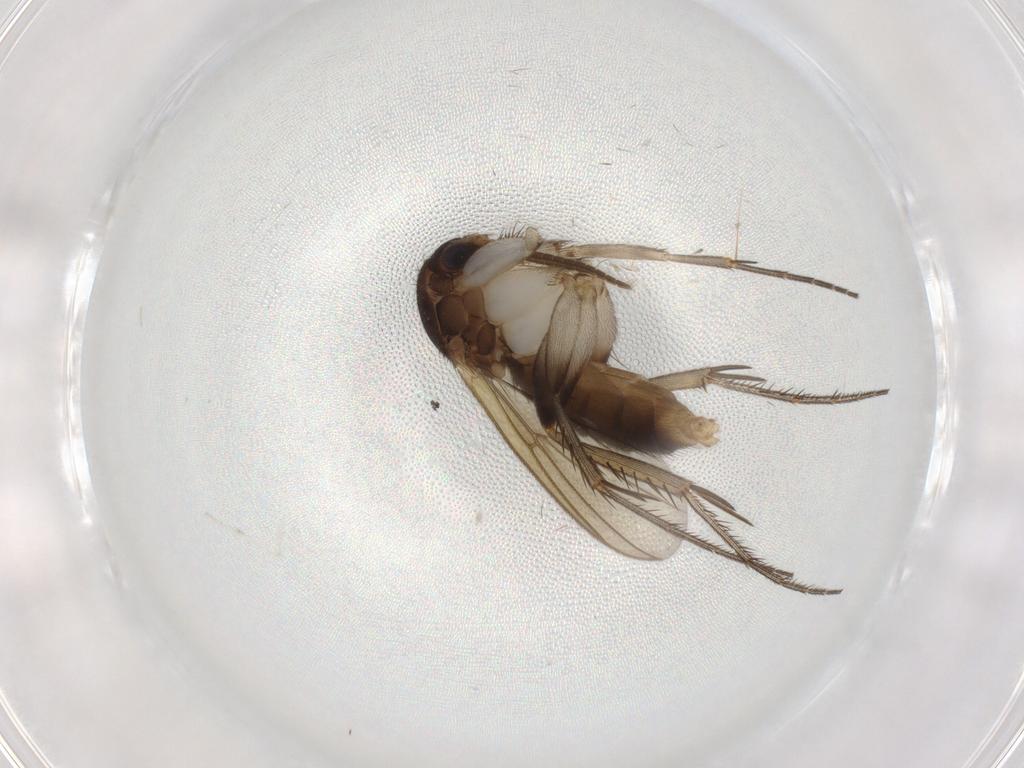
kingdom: Animalia
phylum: Arthropoda
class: Insecta
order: Diptera
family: Mycetophilidae
